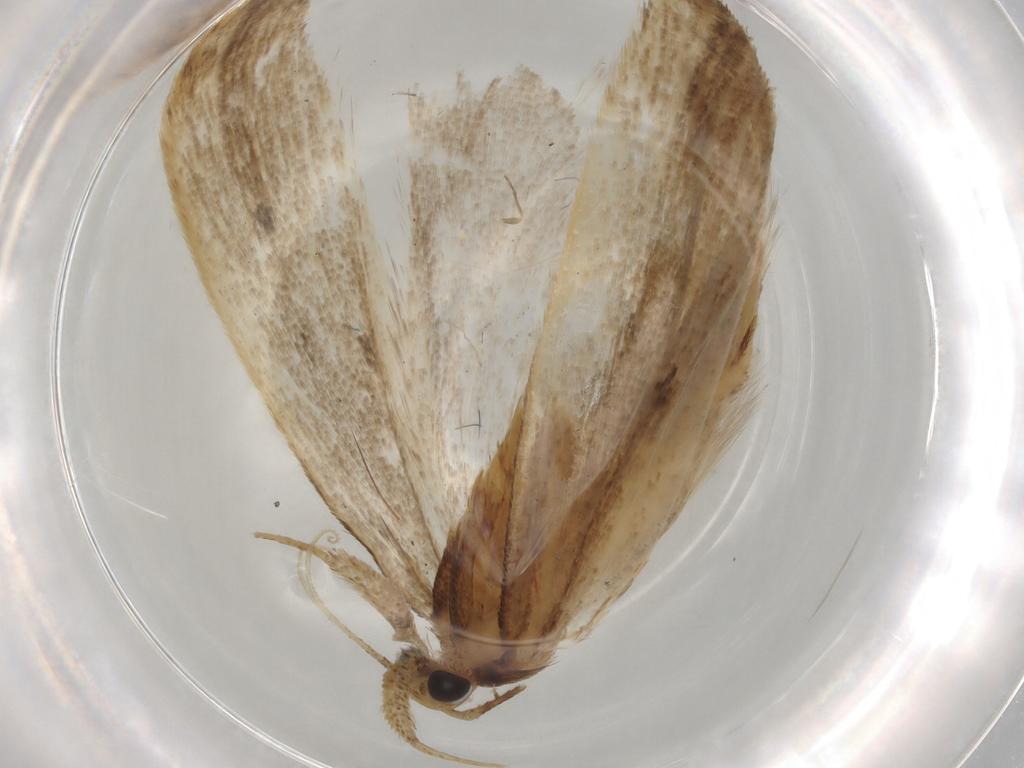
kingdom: Animalia
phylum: Arthropoda
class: Insecta
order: Lepidoptera
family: Gelechiidae
